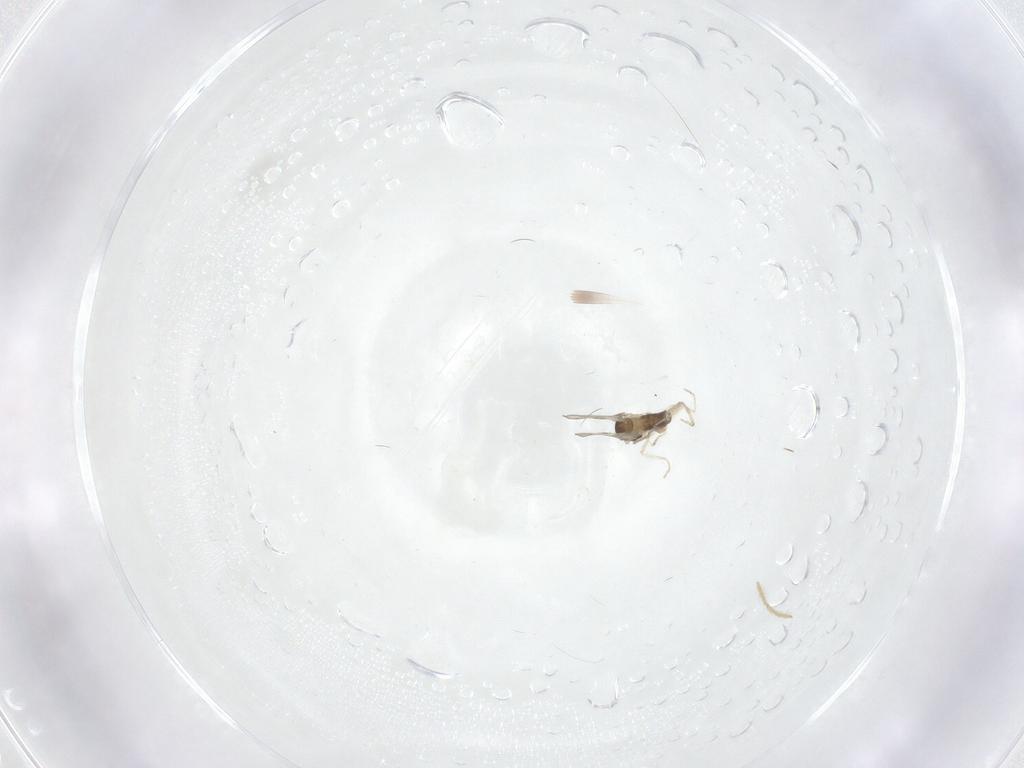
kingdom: Animalia
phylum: Arthropoda
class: Insecta
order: Diptera
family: Cecidomyiidae
